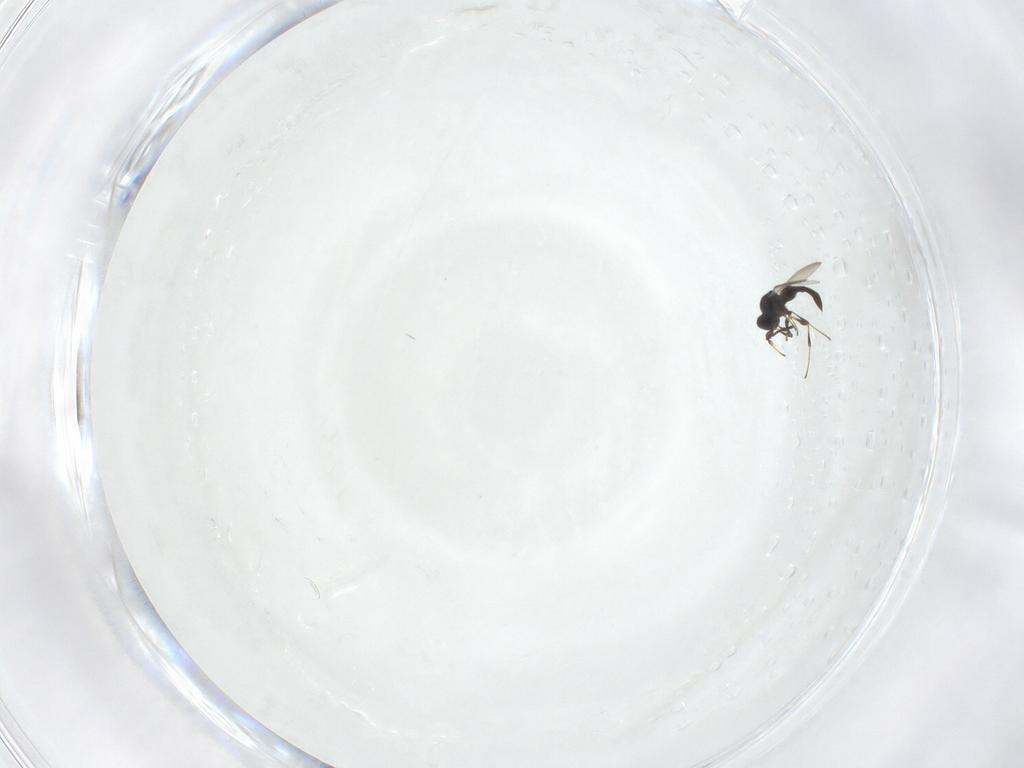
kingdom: Animalia
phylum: Arthropoda
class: Insecta
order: Hymenoptera
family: Platygastridae
